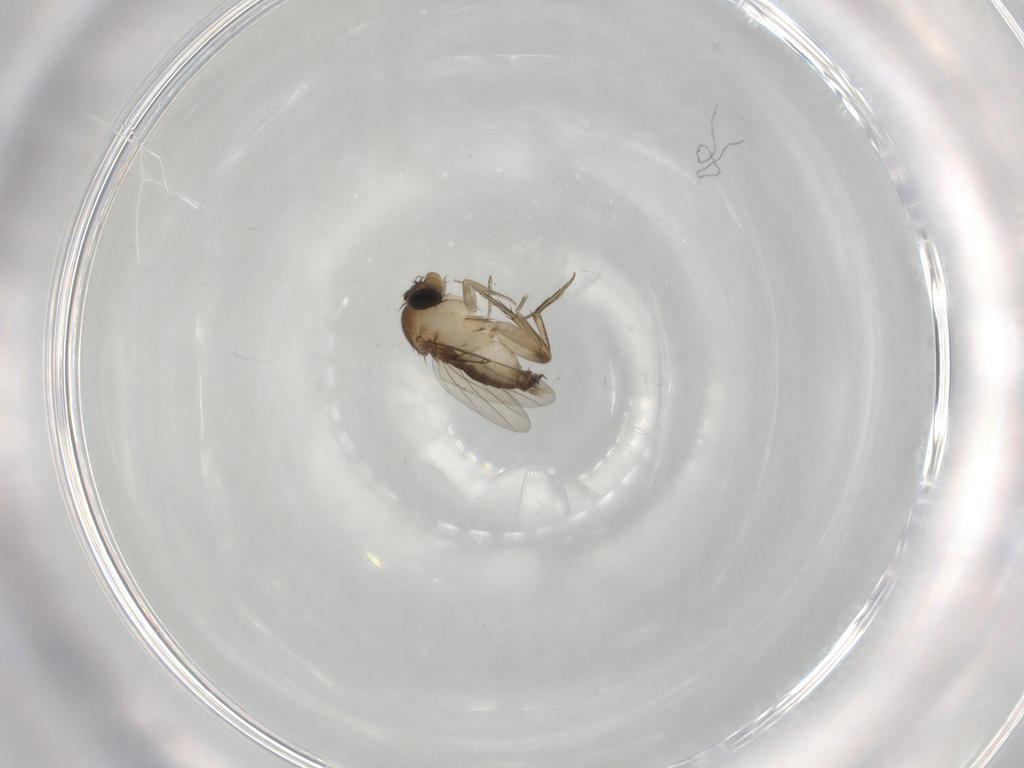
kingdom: Animalia
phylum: Arthropoda
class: Insecta
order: Diptera
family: Phoridae
